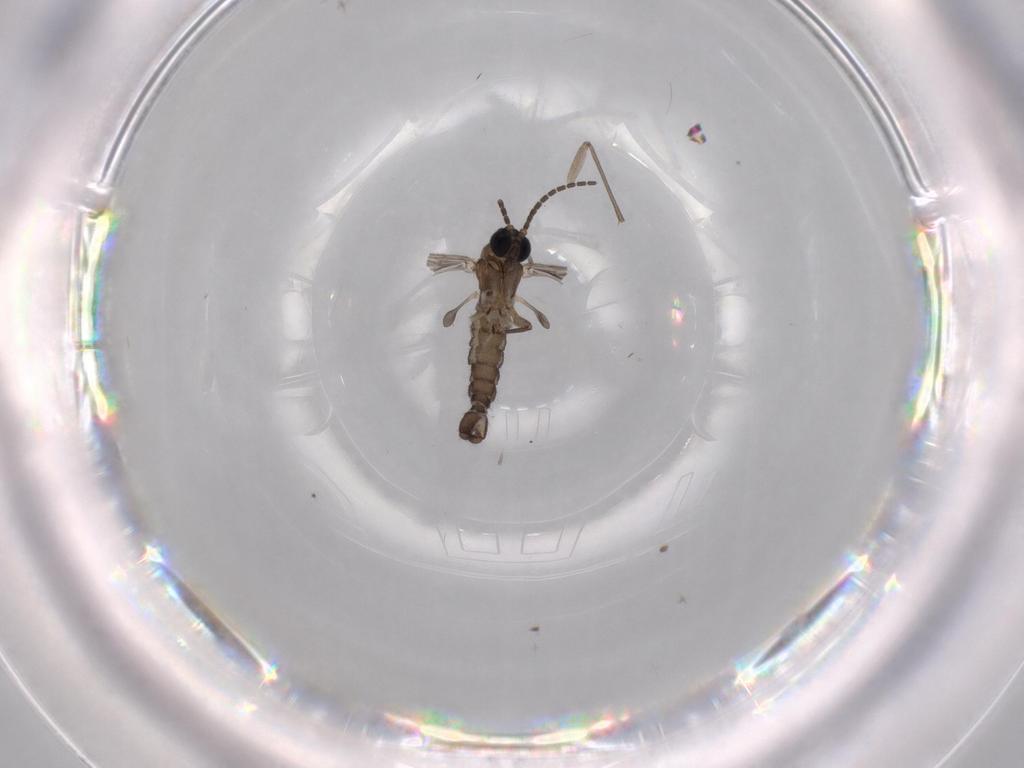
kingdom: Animalia
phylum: Arthropoda
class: Insecta
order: Diptera
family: Sciaridae
